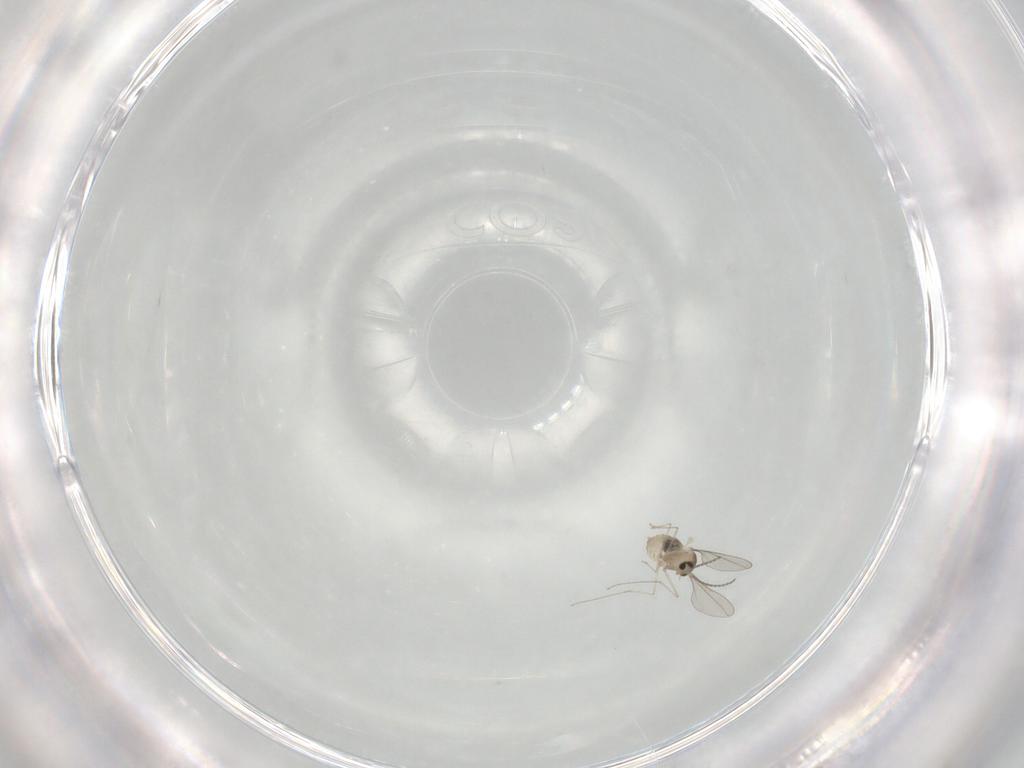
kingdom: Animalia
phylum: Arthropoda
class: Insecta
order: Diptera
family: Cecidomyiidae
